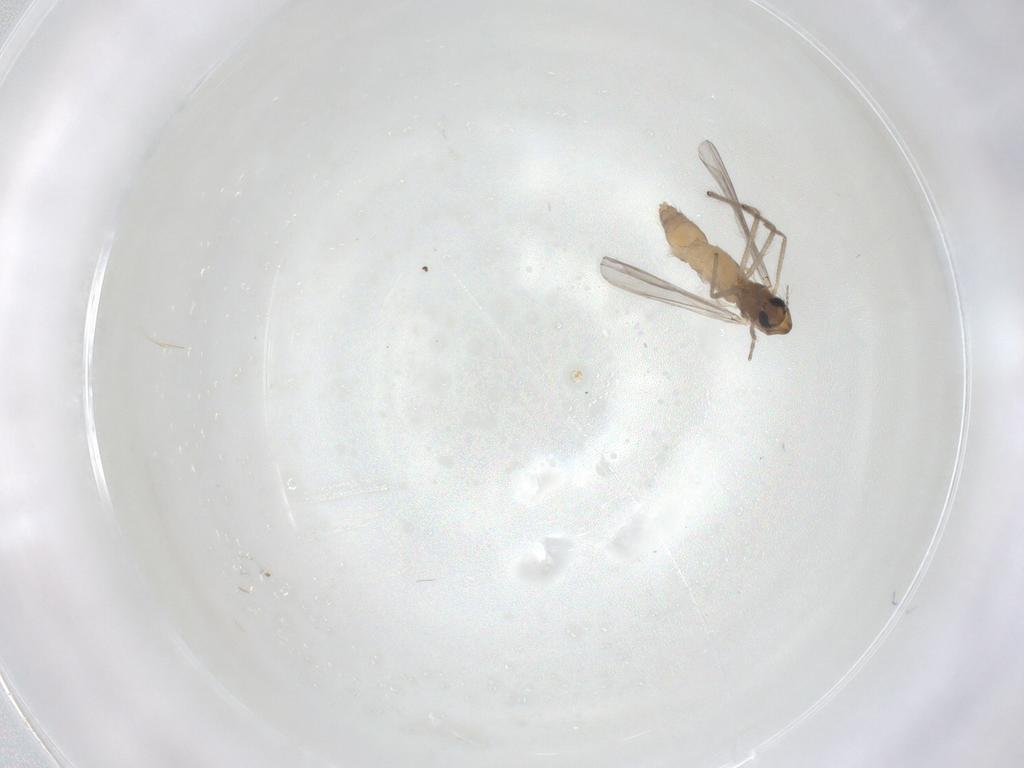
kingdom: Animalia
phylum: Arthropoda
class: Insecta
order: Diptera
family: Chironomidae
